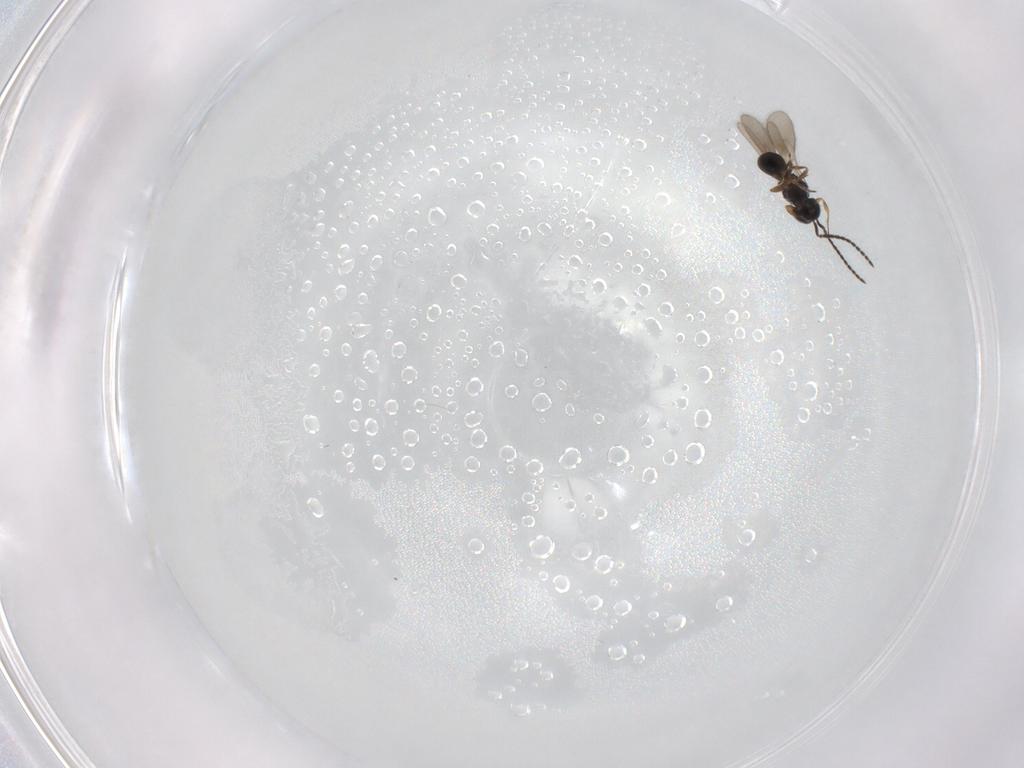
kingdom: Animalia
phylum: Arthropoda
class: Insecta
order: Hymenoptera
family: Scelionidae
